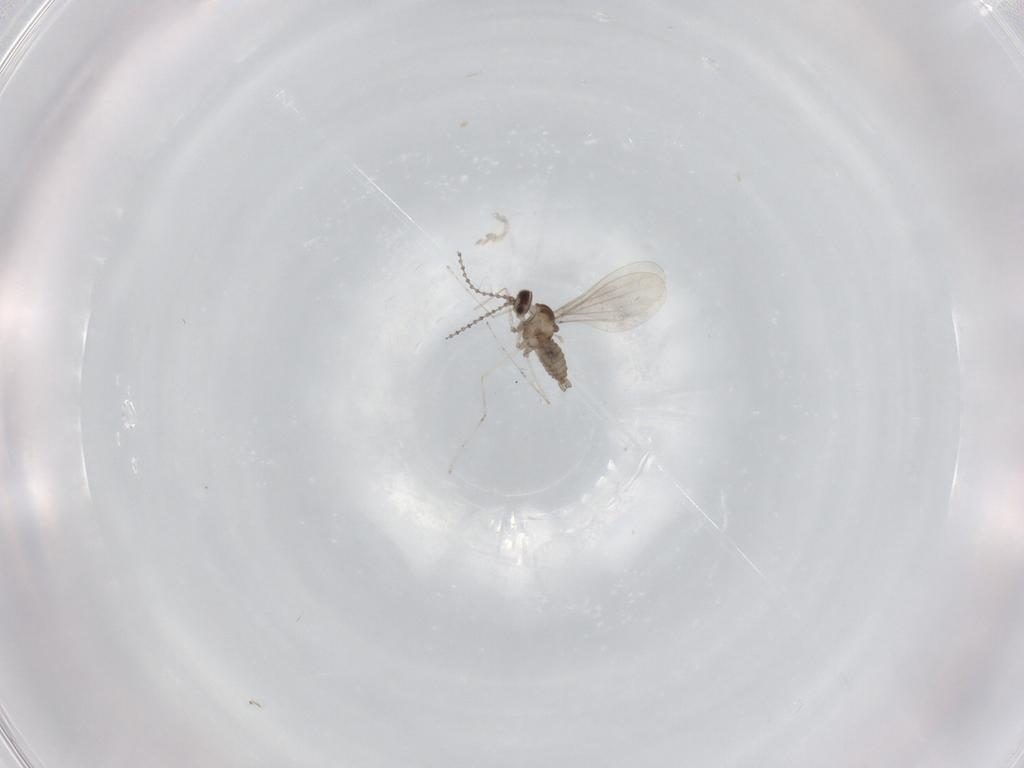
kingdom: Animalia
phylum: Arthropoda
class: Insecta
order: Diptera
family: Cecidomyiidae
